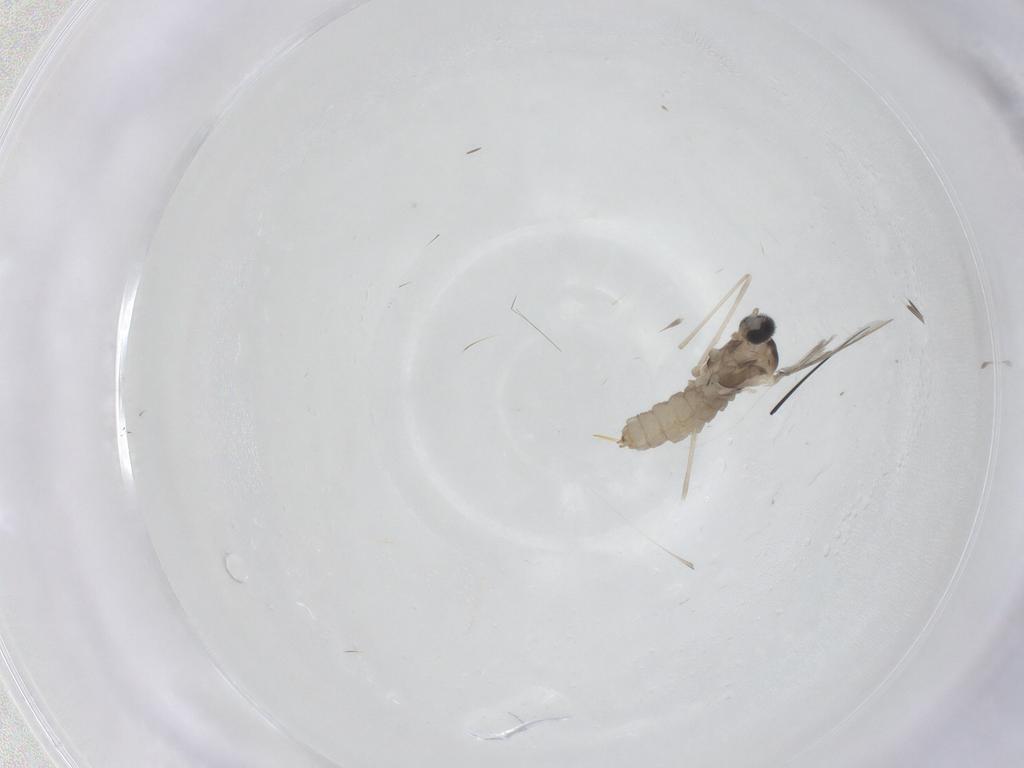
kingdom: Animalia
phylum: Arthropoda
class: Insecta
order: Diptera
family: Cecidomyiidae
